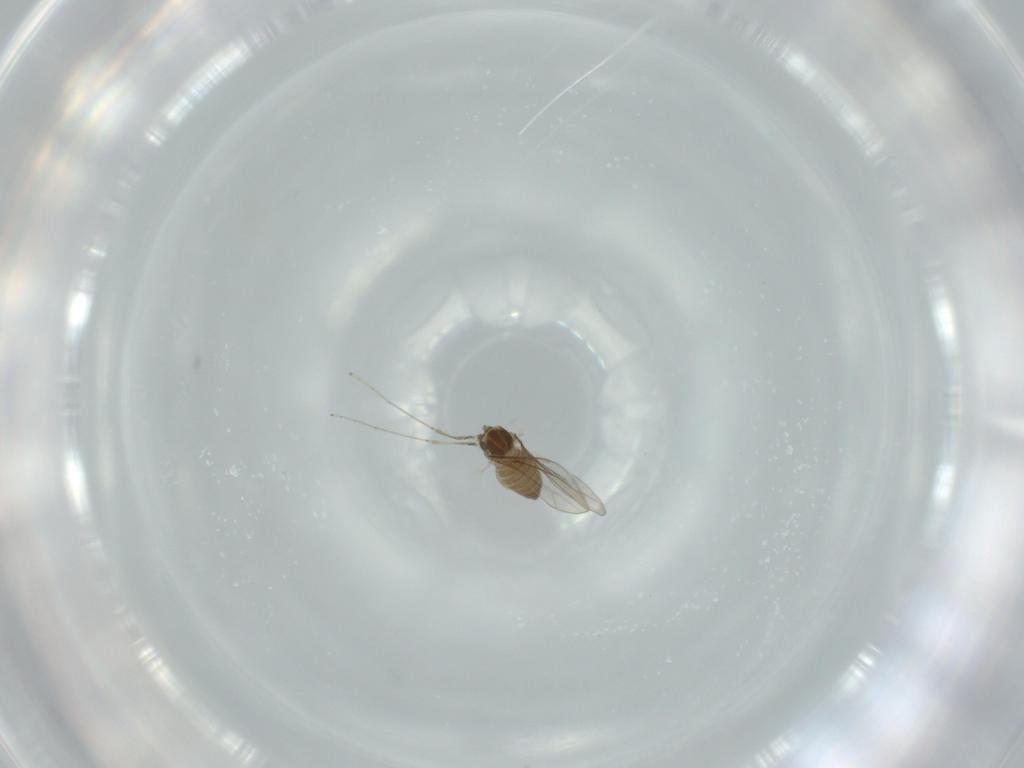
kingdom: Animalia
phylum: Arthropoda
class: Insecta
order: Diptera
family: Cecidomyiidae
